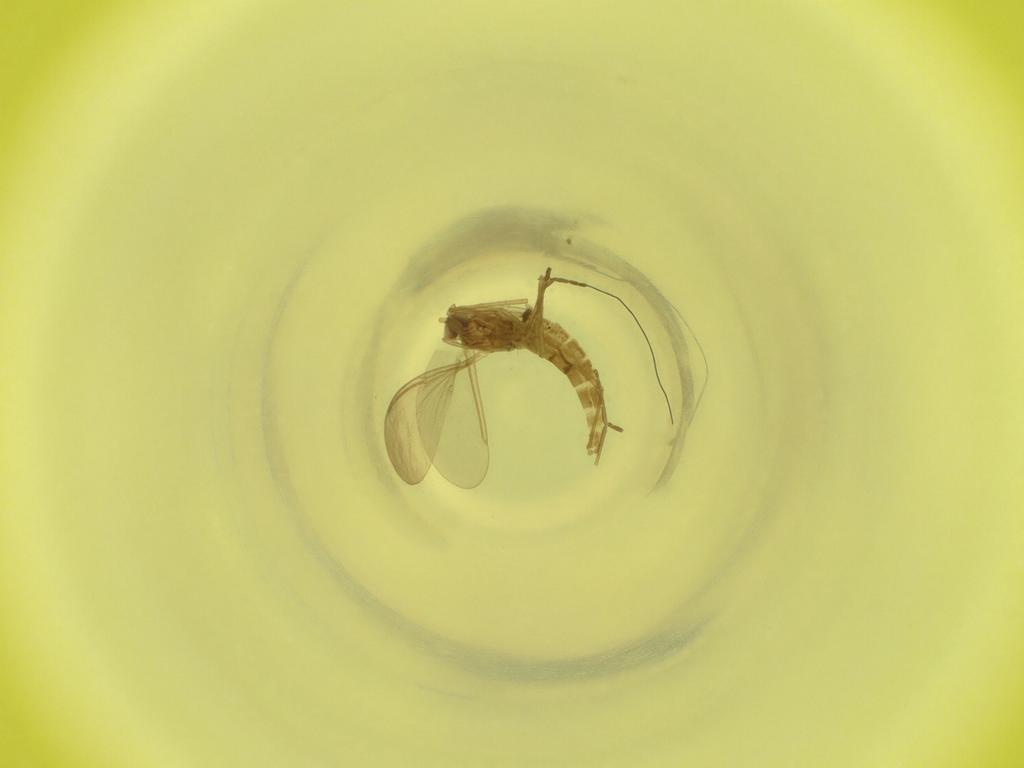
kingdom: Animalia
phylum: Arthropoda
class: Insecta
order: Diptera
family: Cecidomyiidae
